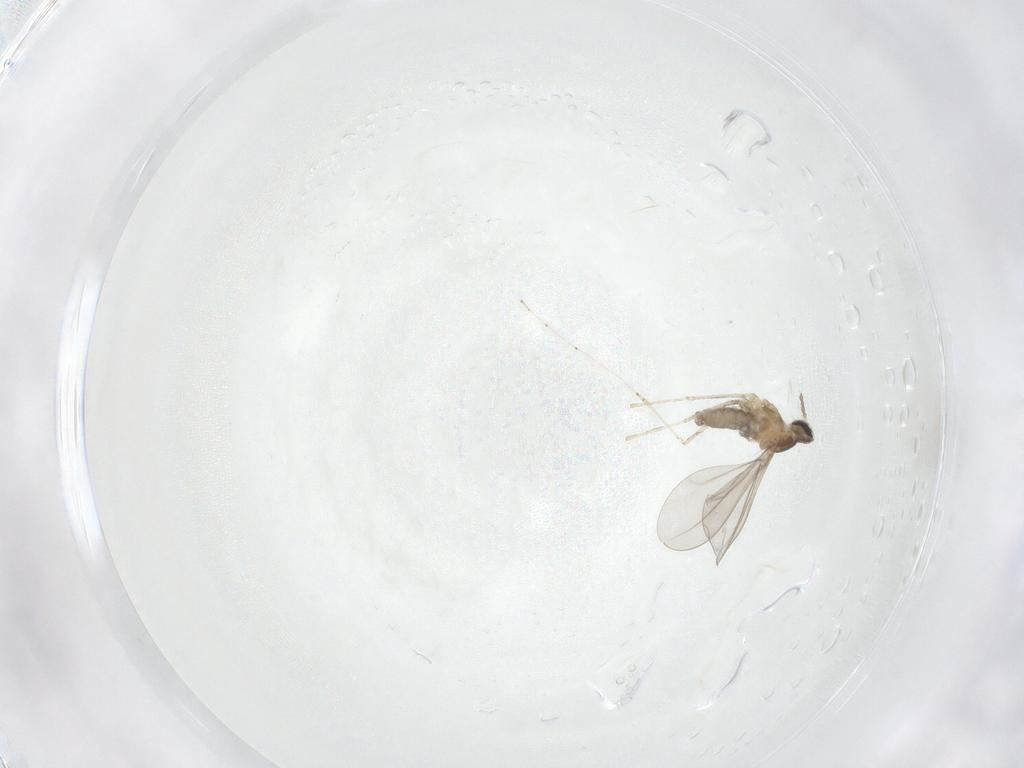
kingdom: Animalia
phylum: Arthropoda
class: Insecta
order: Diptera
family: Cecidomyiidae
